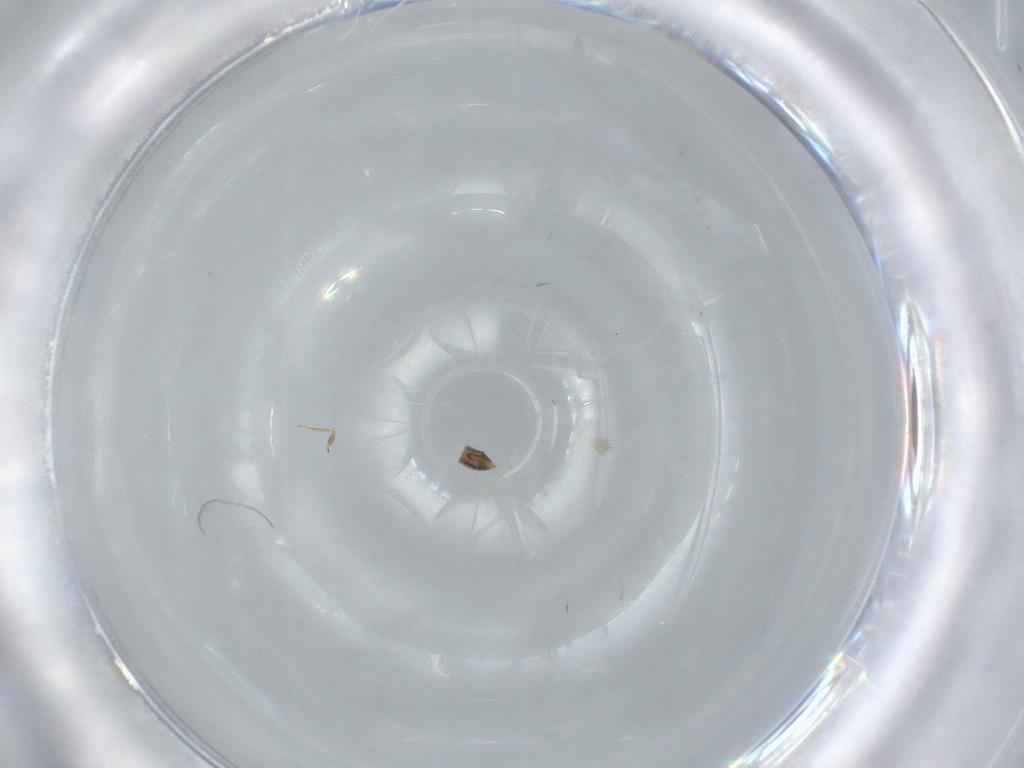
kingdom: Animalia
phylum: Arthropoda
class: Insecta
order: Hymenoptera
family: Mymaridae
